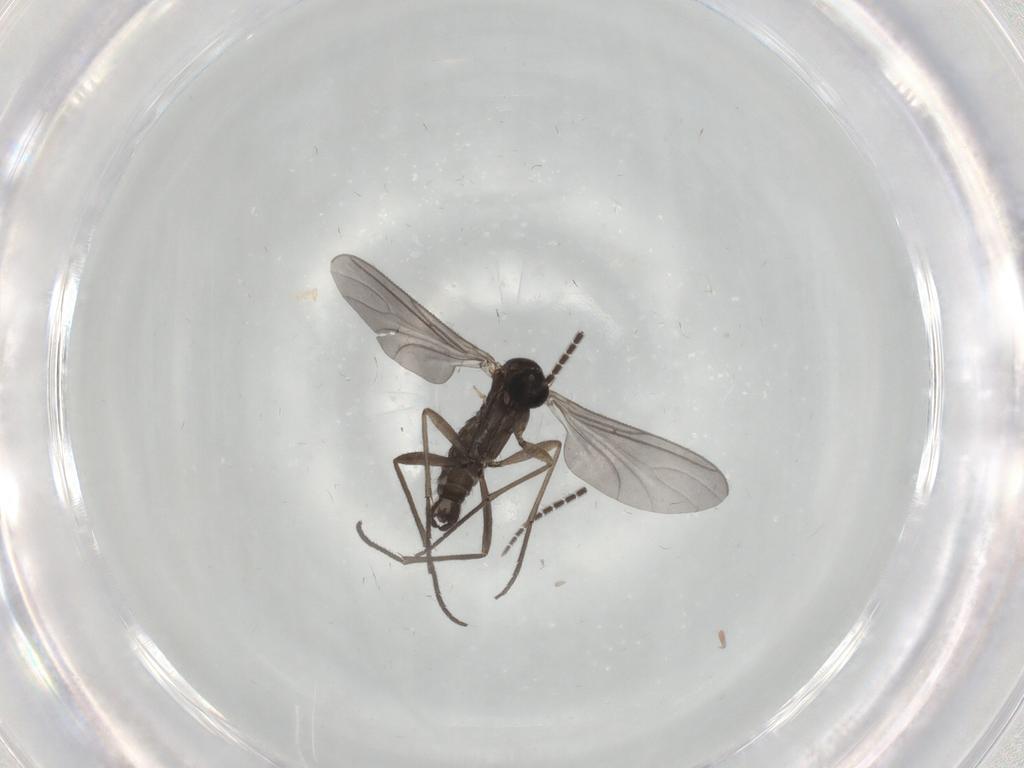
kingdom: Animalia
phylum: Arthropoda
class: Insecta
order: Diptera
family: Sciaridae
